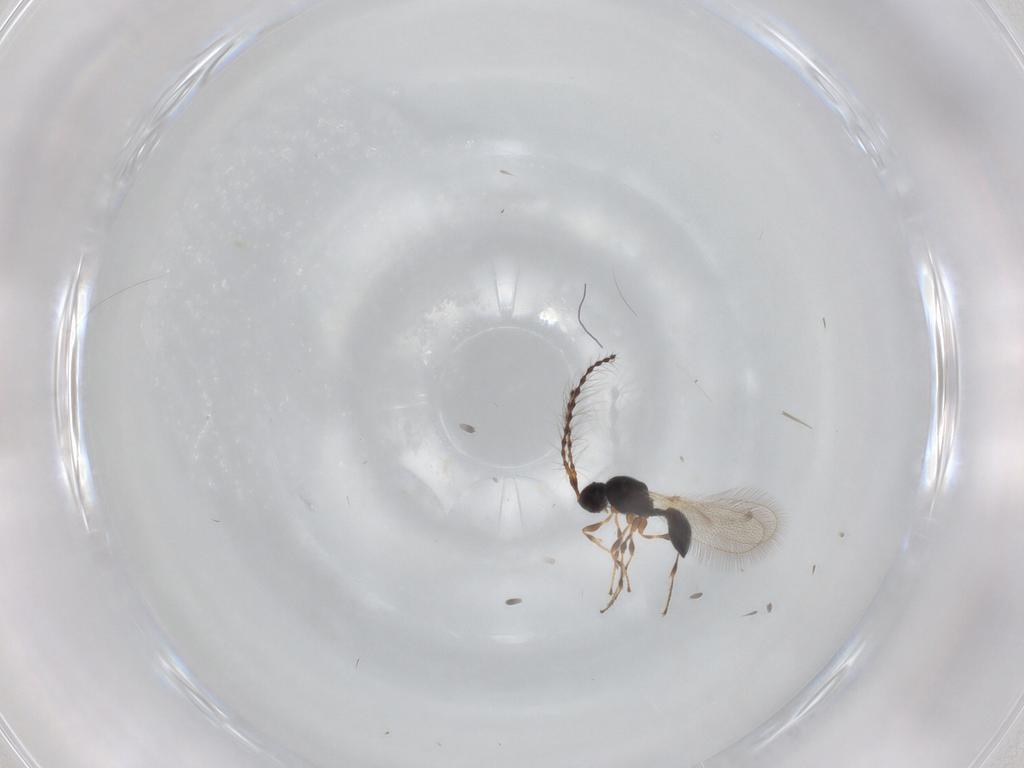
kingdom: Animalia
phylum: Arthropoda
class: Insecta
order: Hymenoptera
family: Diapriidae
